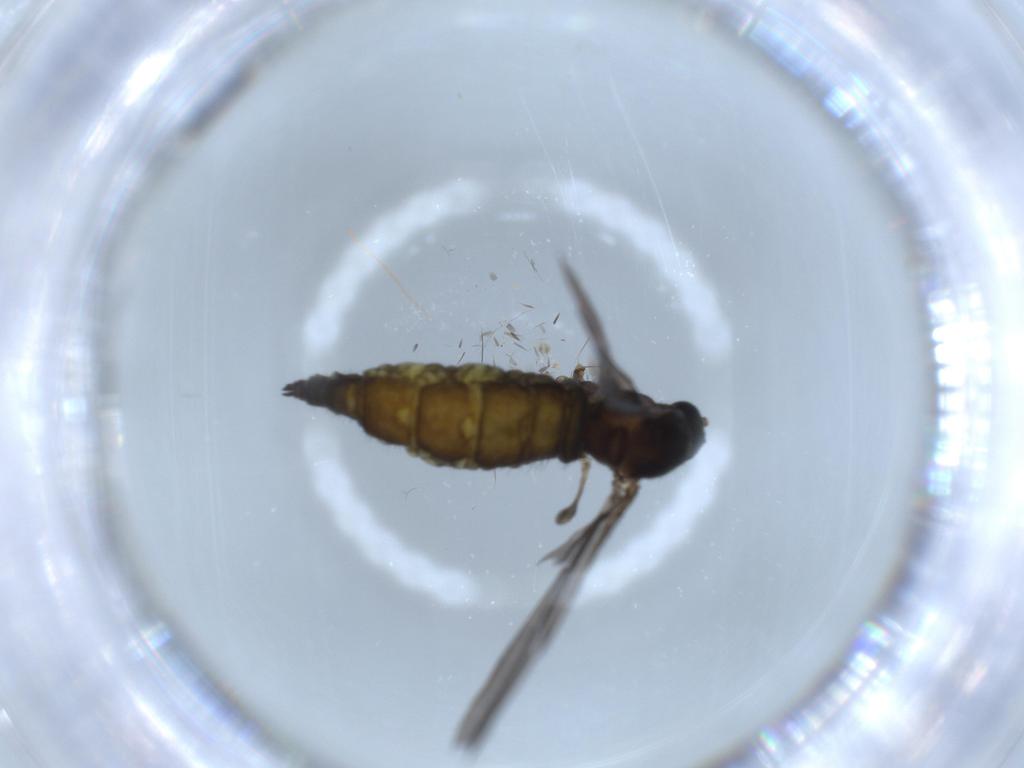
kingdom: Animalia
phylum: Arthropoda
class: Insecta
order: Diptera
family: Sciaridae
